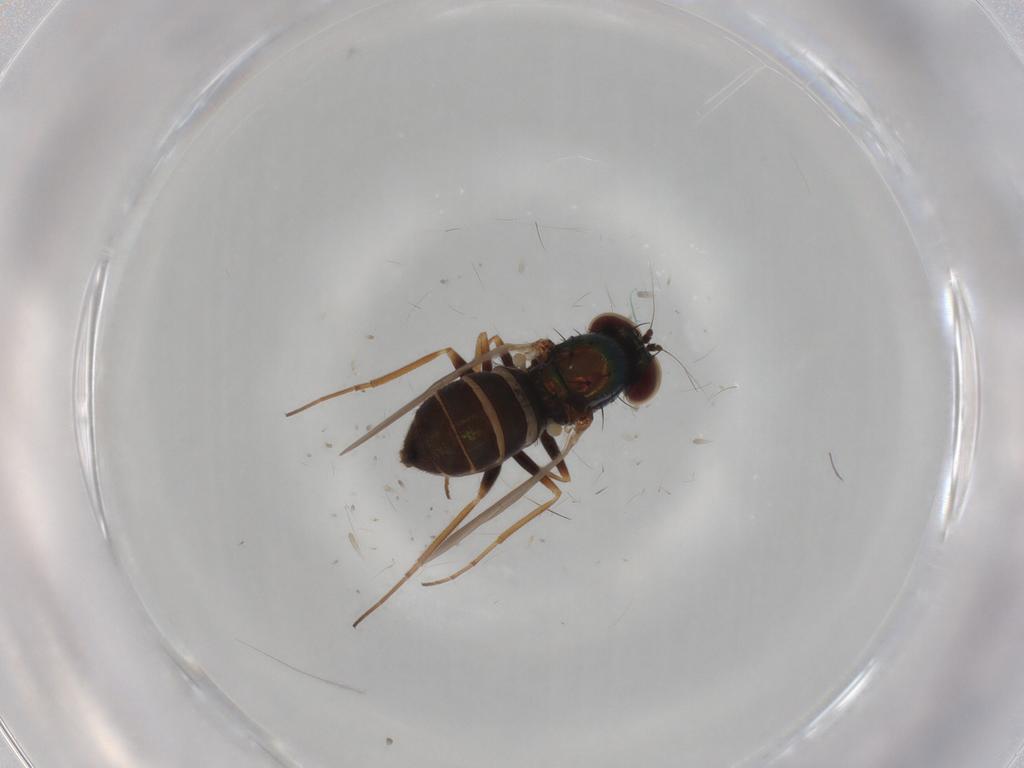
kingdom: Animalia
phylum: Arthropoda
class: Insecta
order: Diptera
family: Dolichopodidae
